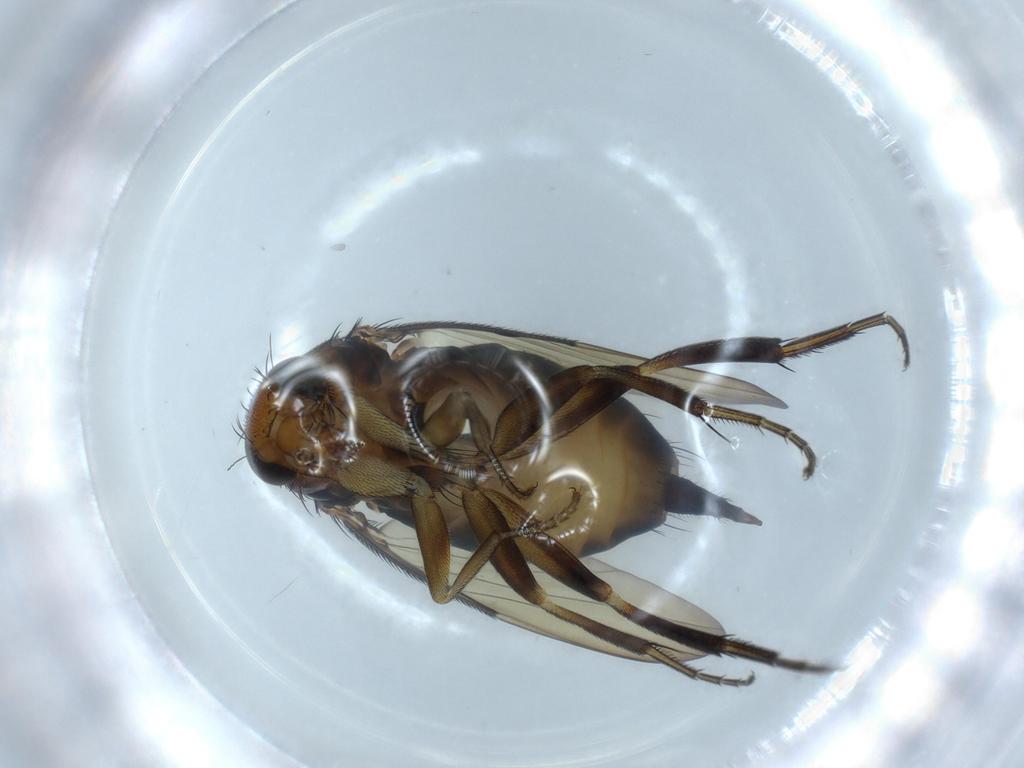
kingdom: Animalia
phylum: Arthropoda
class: Insecta
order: Diptera
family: Phoridae
